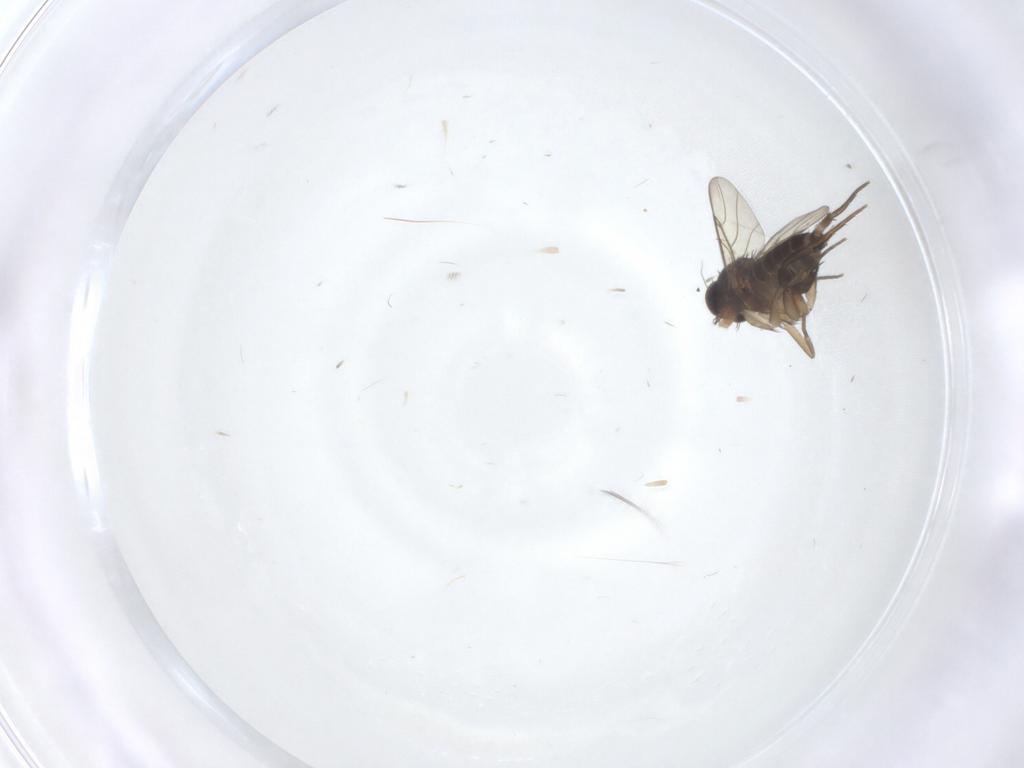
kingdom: Animalia
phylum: Arthropoda
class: Insecta
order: Diptera
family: Phoridae
